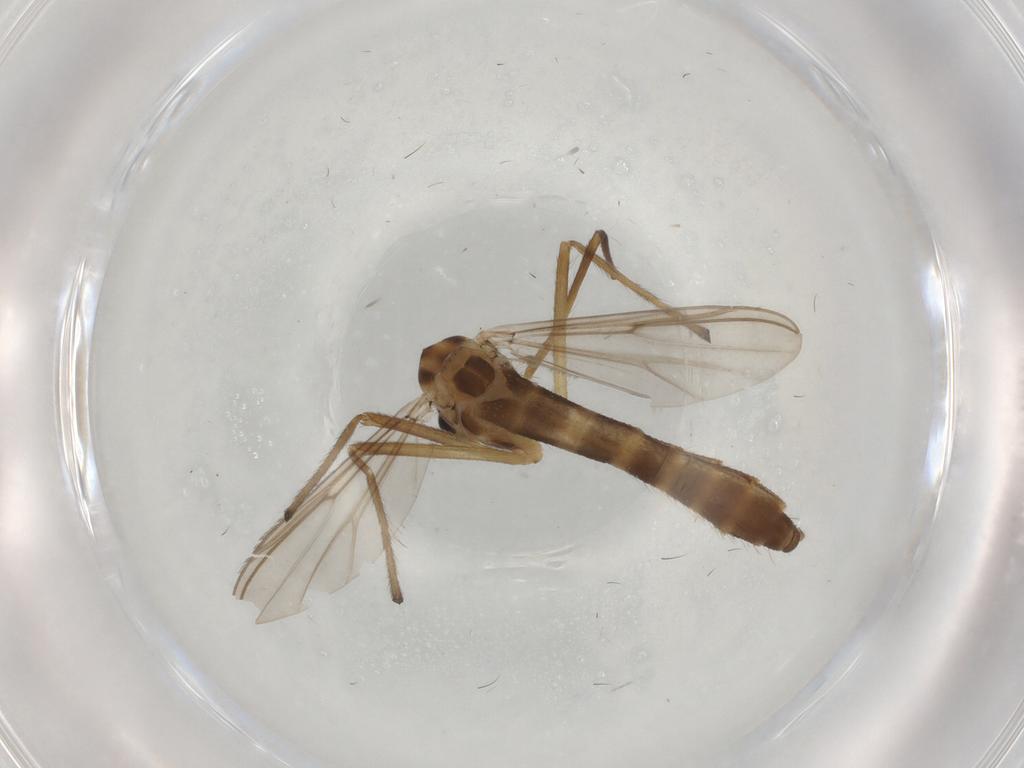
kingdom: Animalia
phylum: Arthropoda
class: Insecta
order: Diptera
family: Chironomidae
